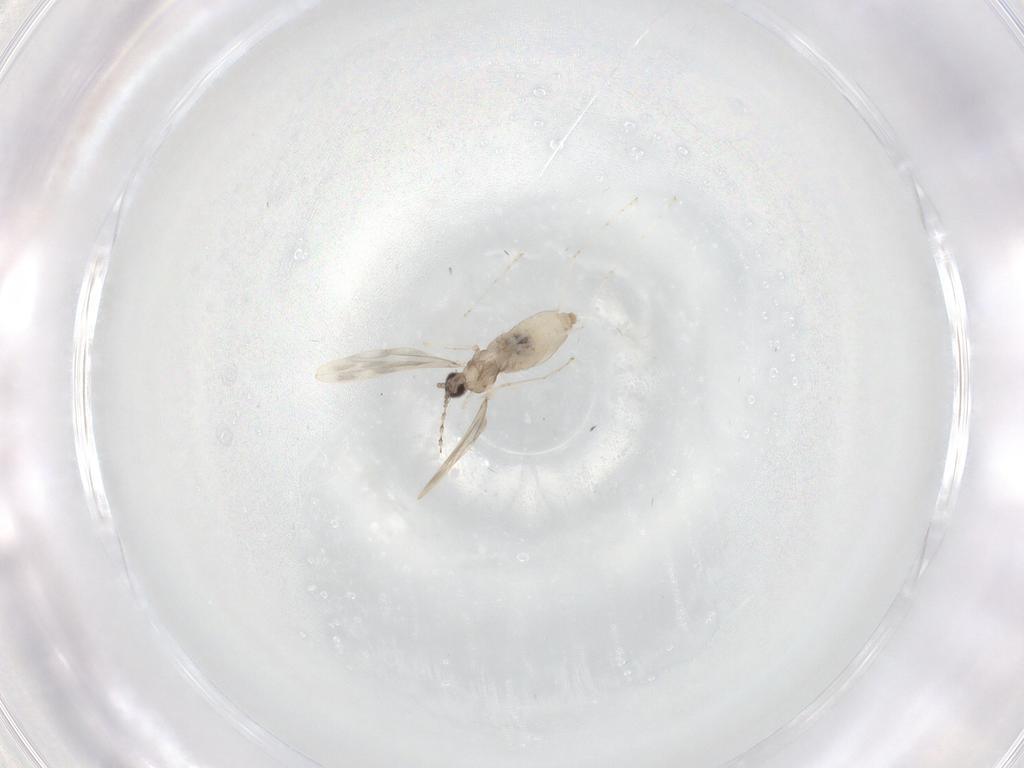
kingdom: Animalia
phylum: Arthropoda
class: Insecta
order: Diptera
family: Cecidomyiidae
